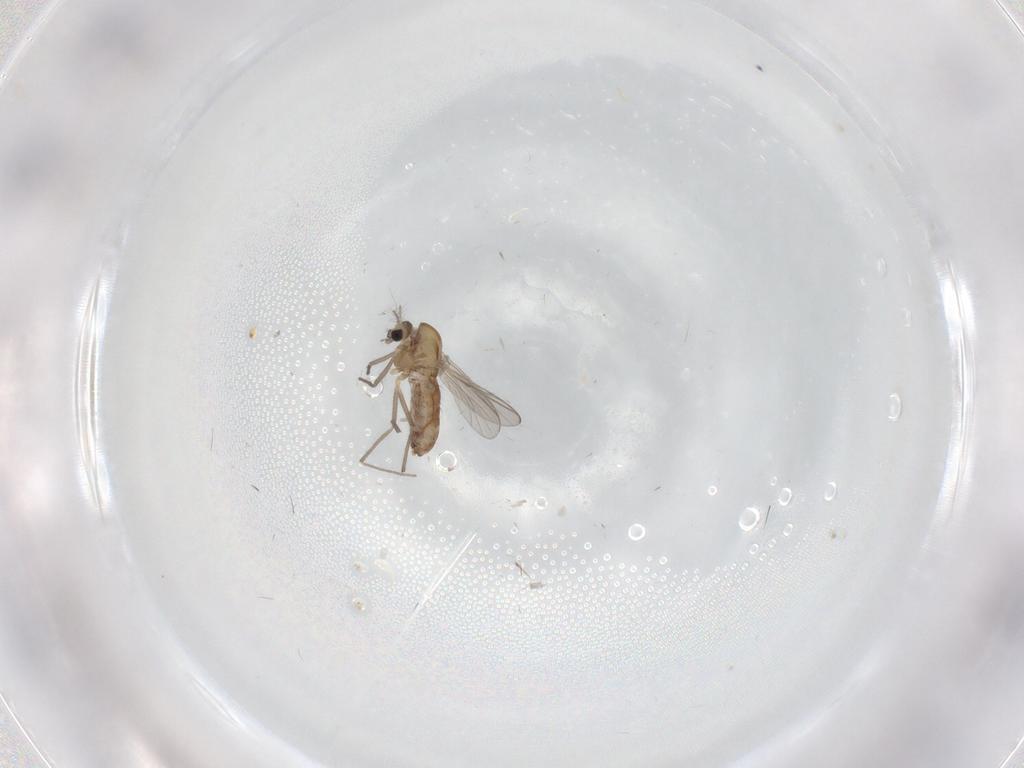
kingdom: Animalia
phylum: Arthropoda
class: Insecta
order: Diptera
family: Chironomidae
